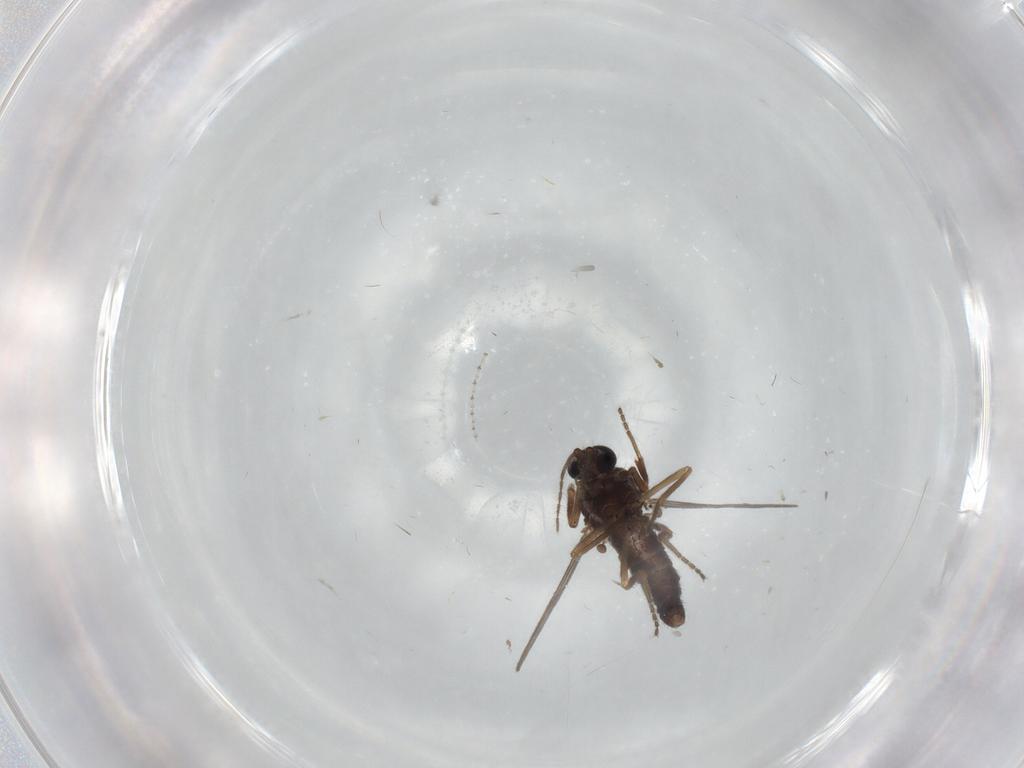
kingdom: Animalia
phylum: Arthropoda
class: Insecta
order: Diptera
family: Ceratopogonidae
